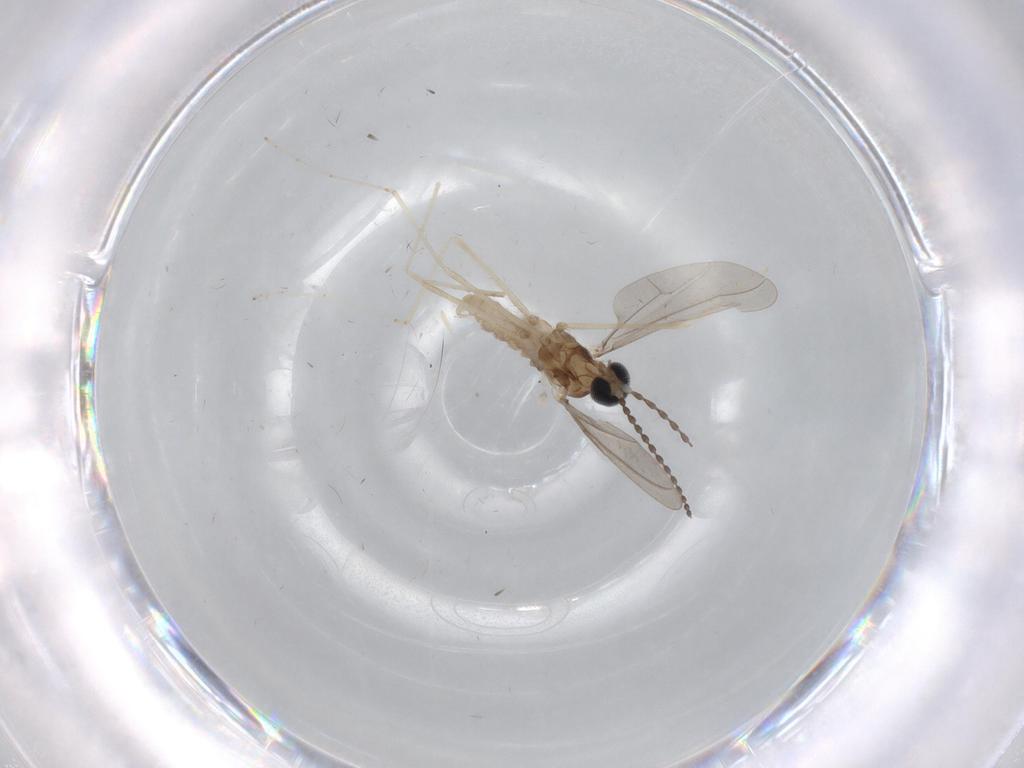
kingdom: Animalia
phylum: Arthropoda
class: Insecta
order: Diptera
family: Cecidomyiidae
